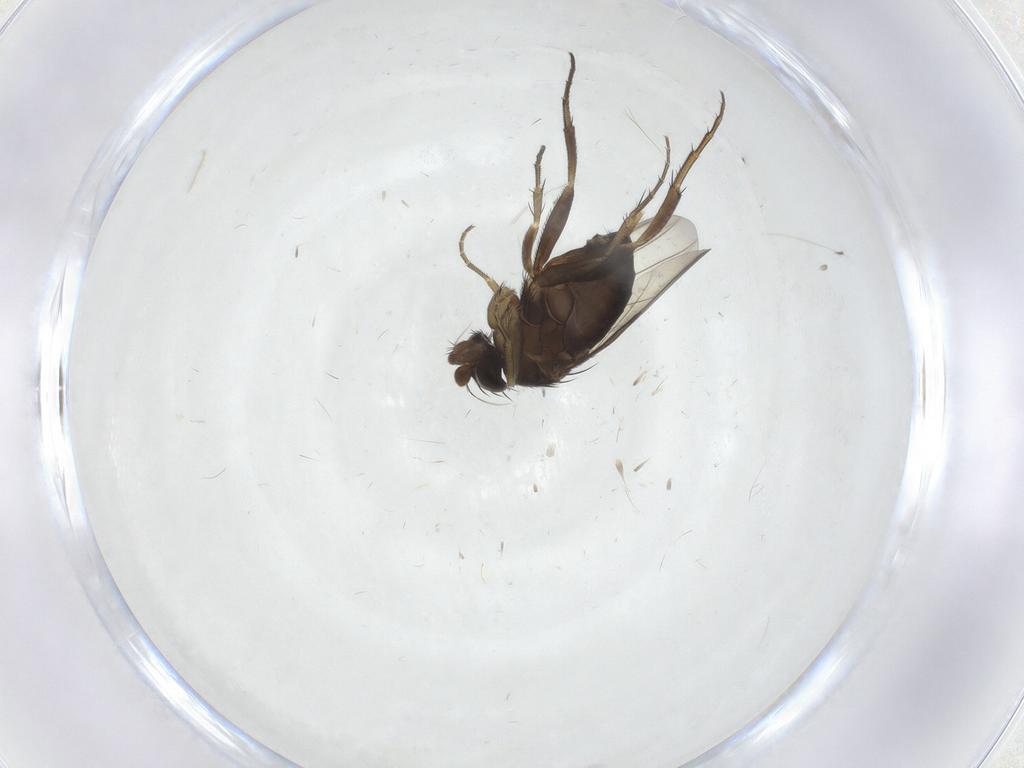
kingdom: Animalia
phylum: Arthropoda
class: Insecta
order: Diptera
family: Phoridae
